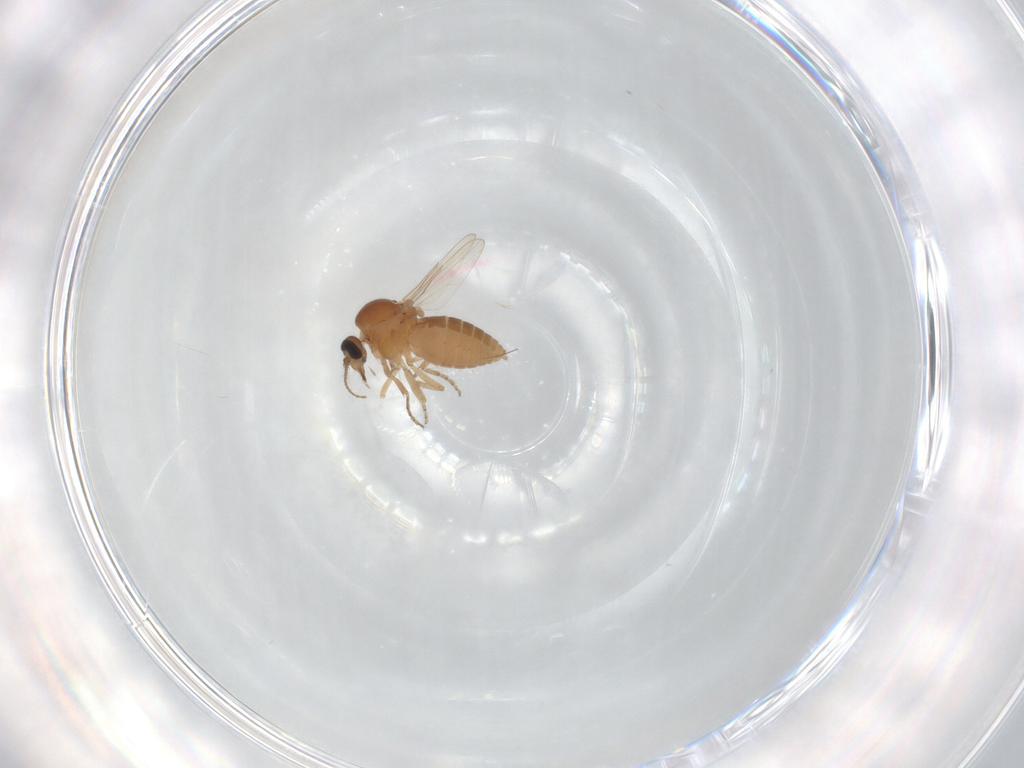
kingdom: Animalia
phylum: Arthropoda
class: Insecta
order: Diptera
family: Ceratopogonidae
